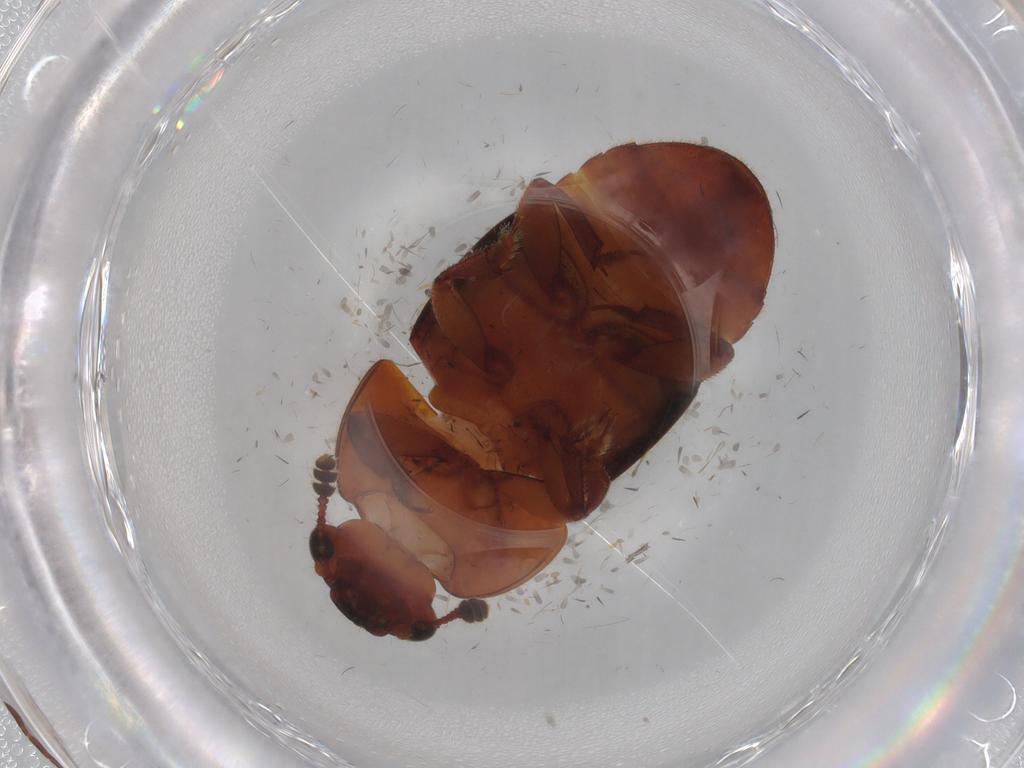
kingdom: Animalia
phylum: Arthropoda
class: Insecta
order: Coleoptera
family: Nitidulidae
